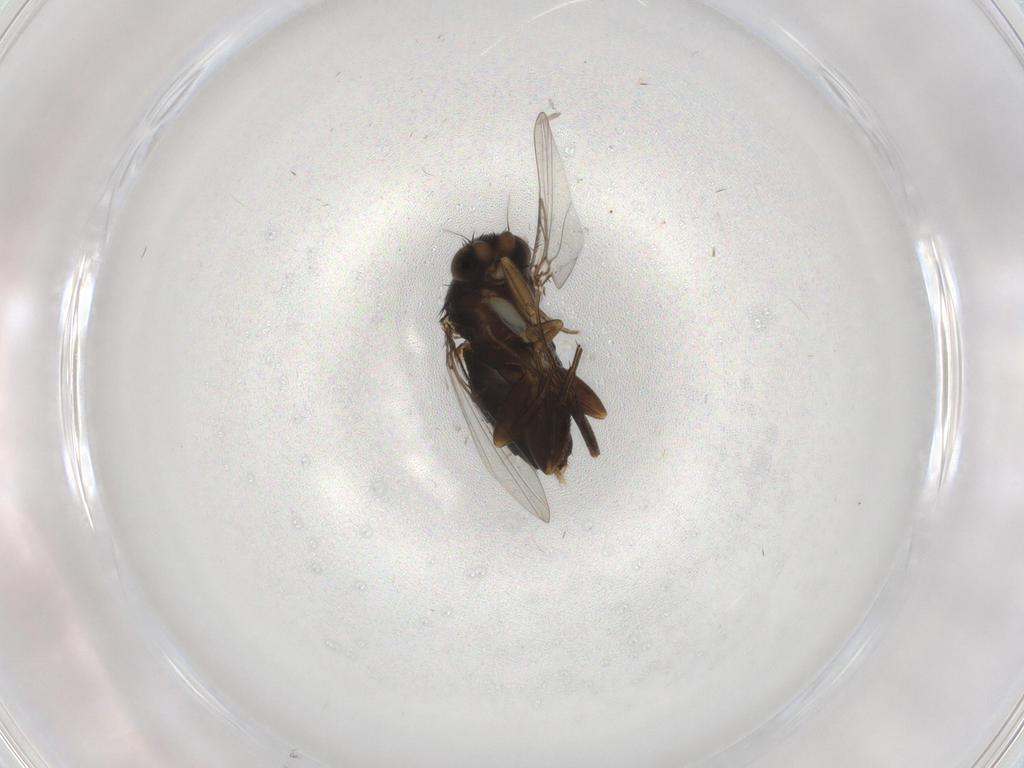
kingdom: Animalia
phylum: Arthropoda
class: Insecta
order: Diptera
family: Phoridae
